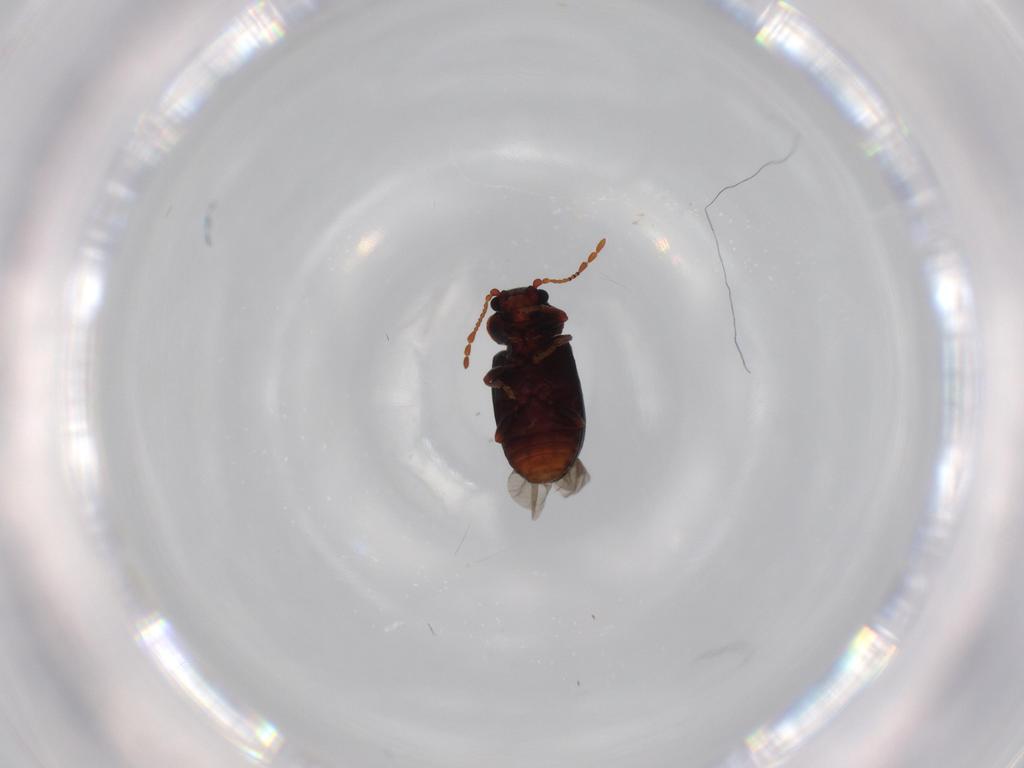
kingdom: Animalia
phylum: Arthropoda
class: Insecta
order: Coleoptera
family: Ptinidae
